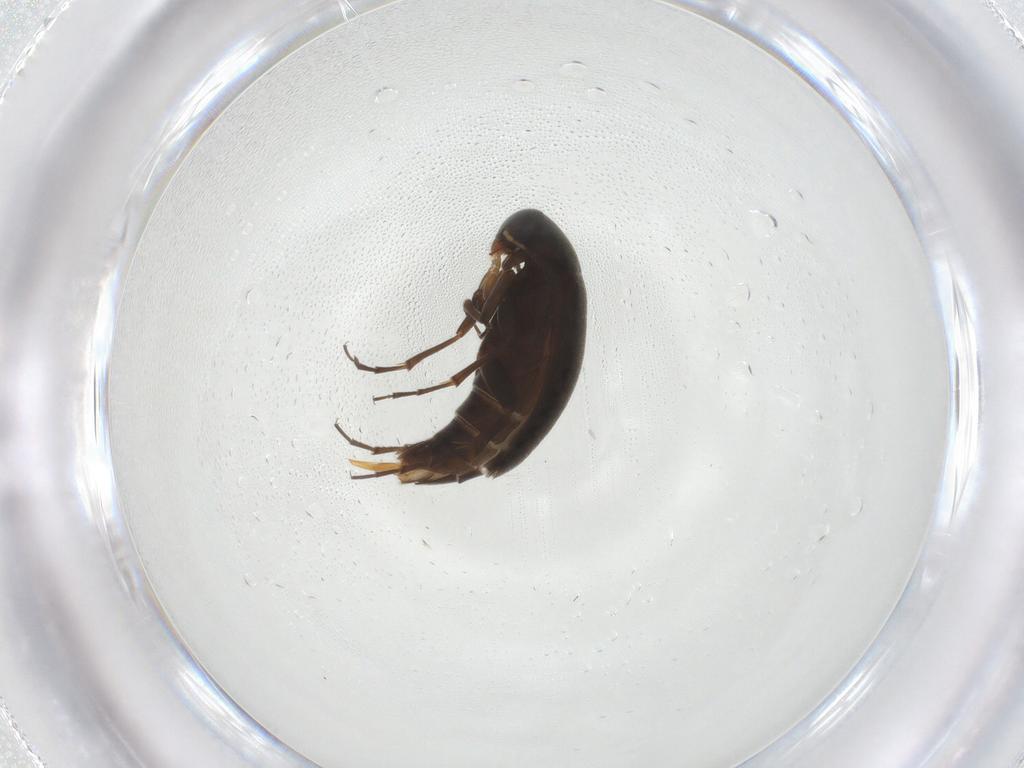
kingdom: Animalia
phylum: Arthropoda
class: Insecta
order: Coleoptera
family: Scraptiidae
